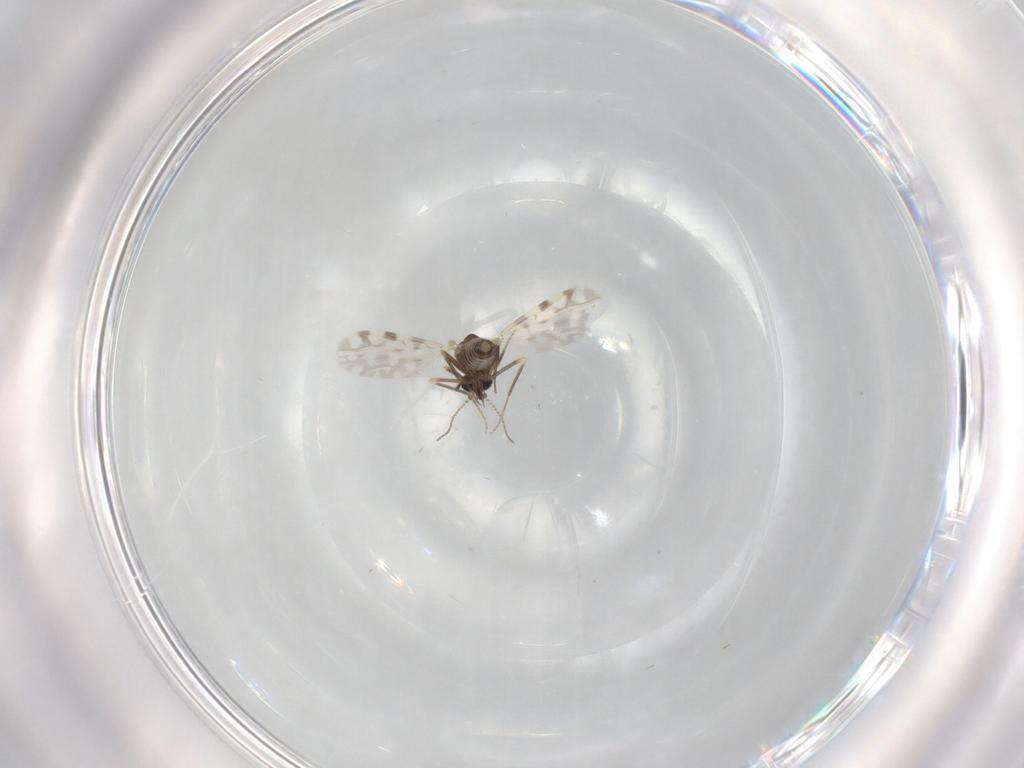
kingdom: Animalia
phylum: Arthropoda
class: Insecta
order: Diptera
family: Ceratopogonidae
